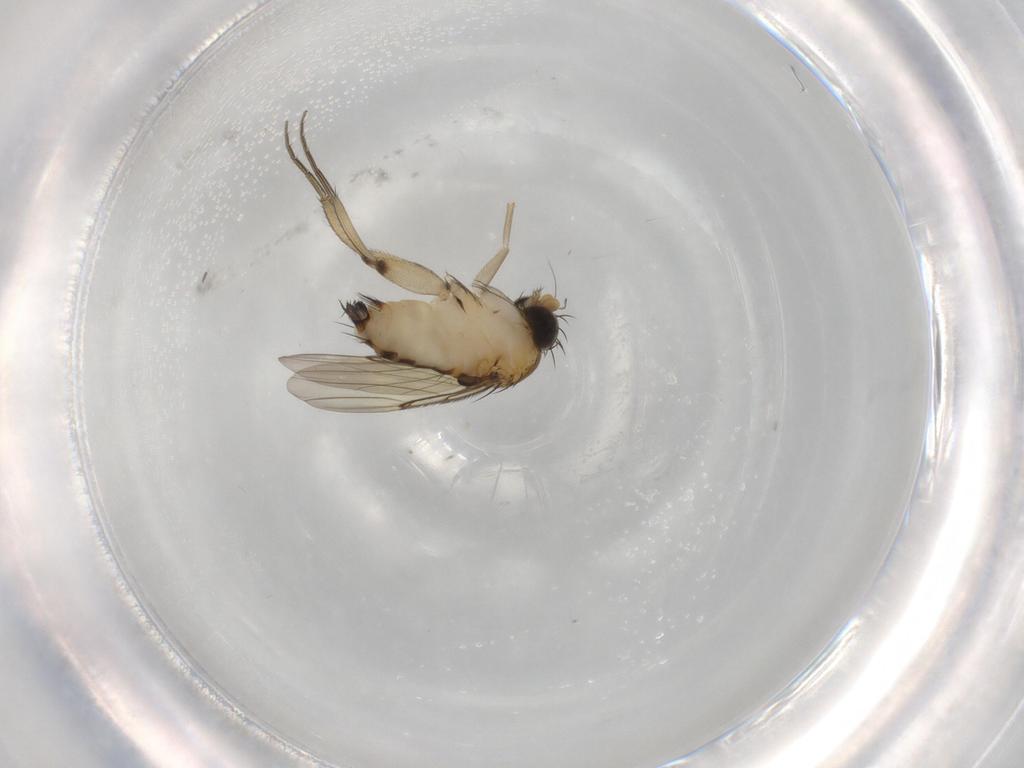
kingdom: Animalia
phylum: Arthropoda
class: Insecta
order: Diptera
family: Phoridae
